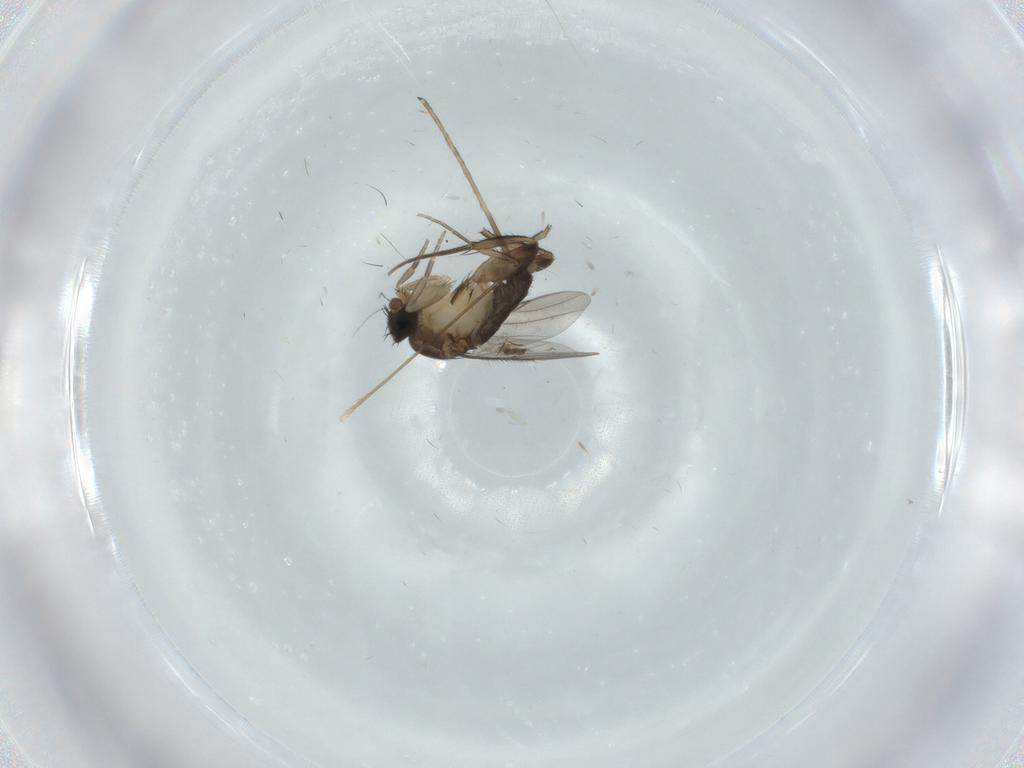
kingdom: Animalia
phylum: Arthropoda
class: Insecta
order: Diptera
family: Phoridae
